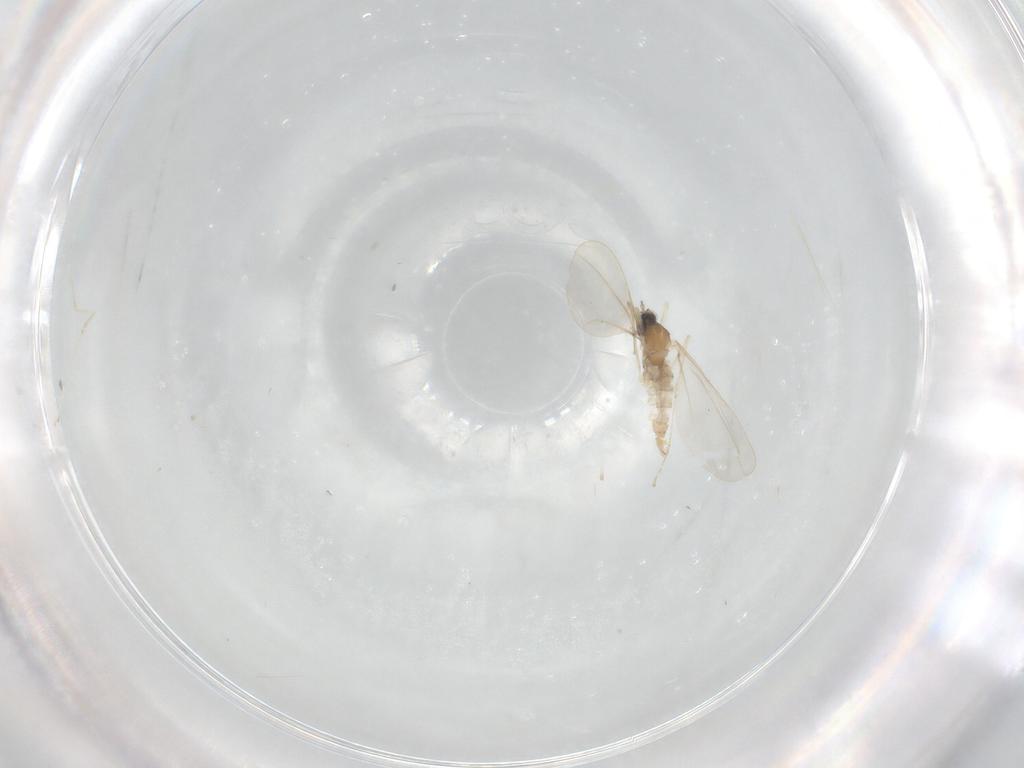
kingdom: Animalia
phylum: Arthropoda
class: Insecta
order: Diptera
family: Cecidomyiidae
